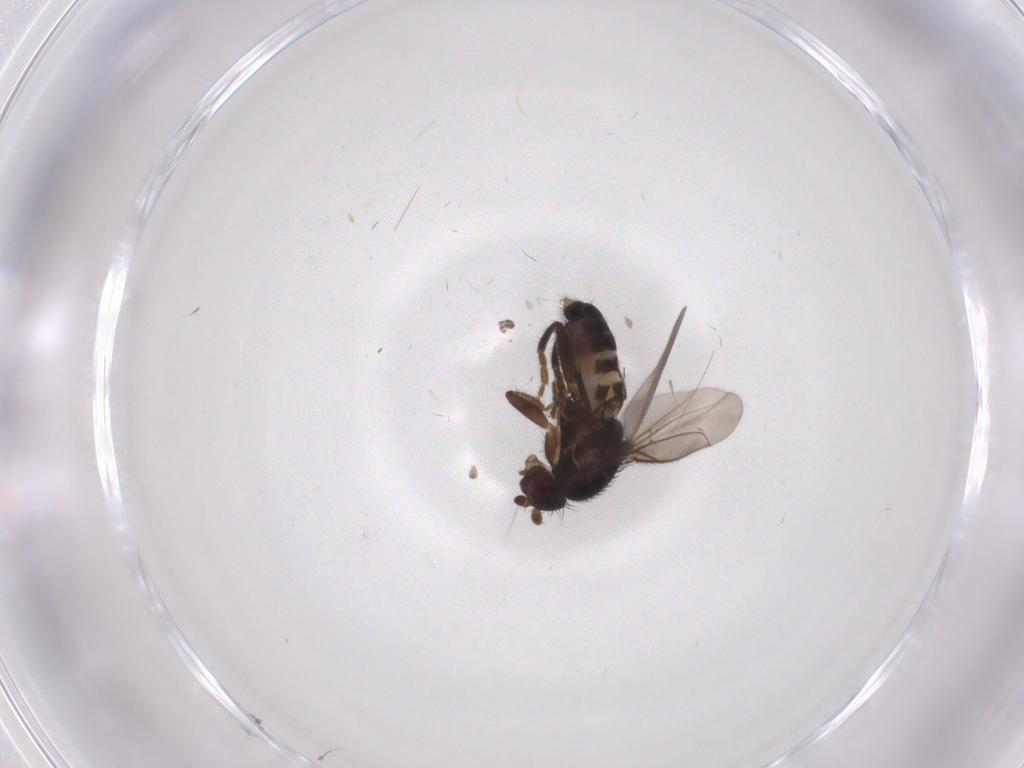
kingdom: Animalia
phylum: Arthropoda
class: Insecta
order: Diptera
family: Sphaeroceridae
